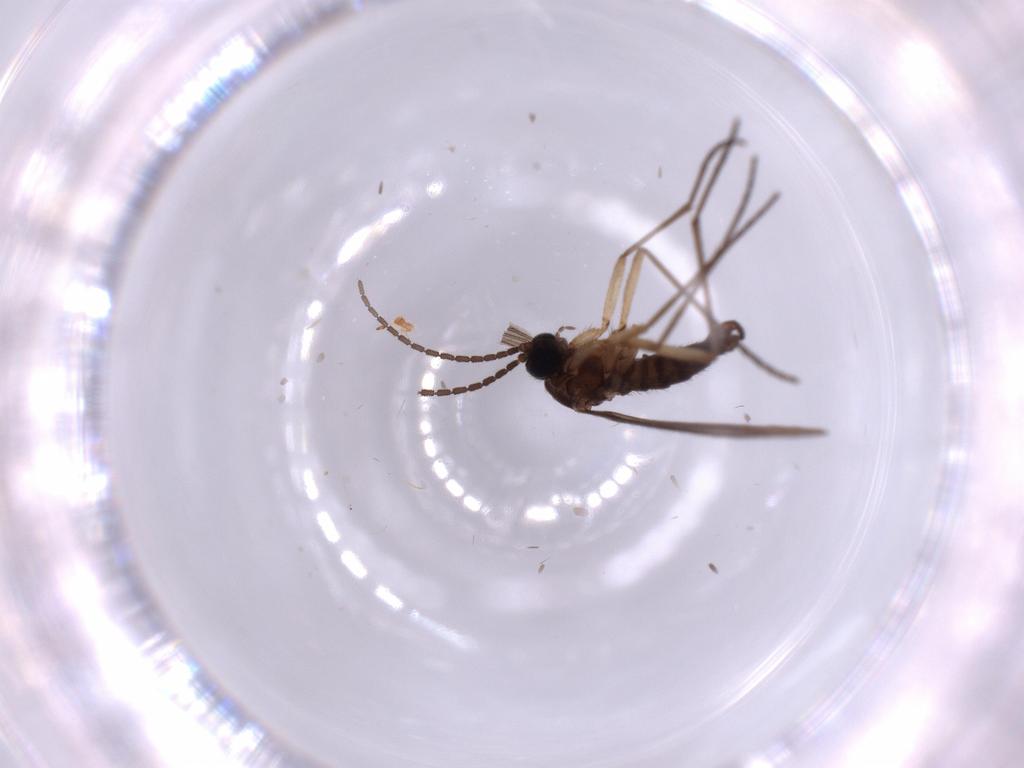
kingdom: Animalia
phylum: Arthropoda
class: Insecta
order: Diptera
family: Sciaridae
